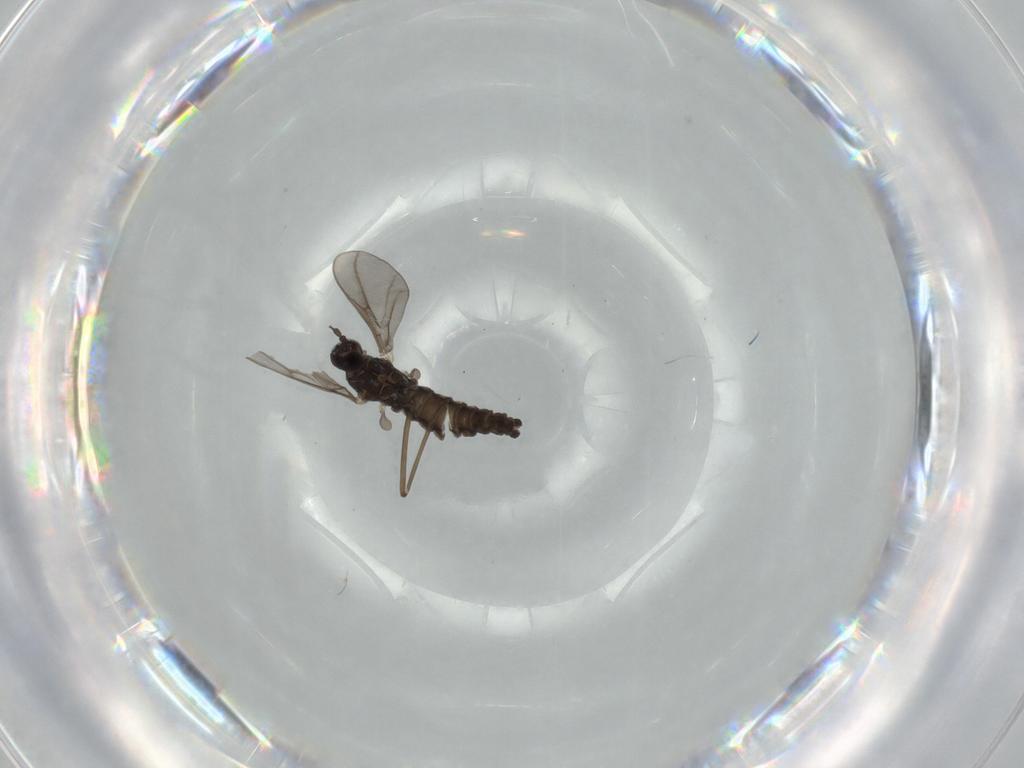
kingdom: Animalia
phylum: Arthropoda
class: Insecta
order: Diptera
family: Cecidomyiidae
